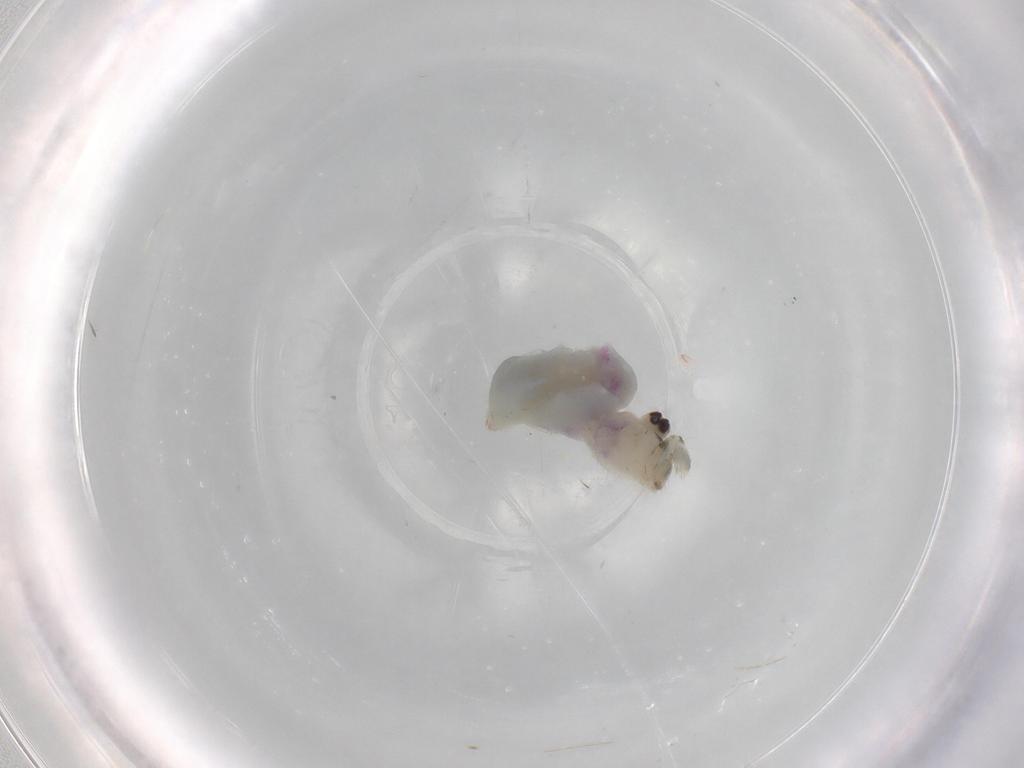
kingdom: Animalia
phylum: Arthropoda
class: Arachnida
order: Araneae
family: Pholcidae
